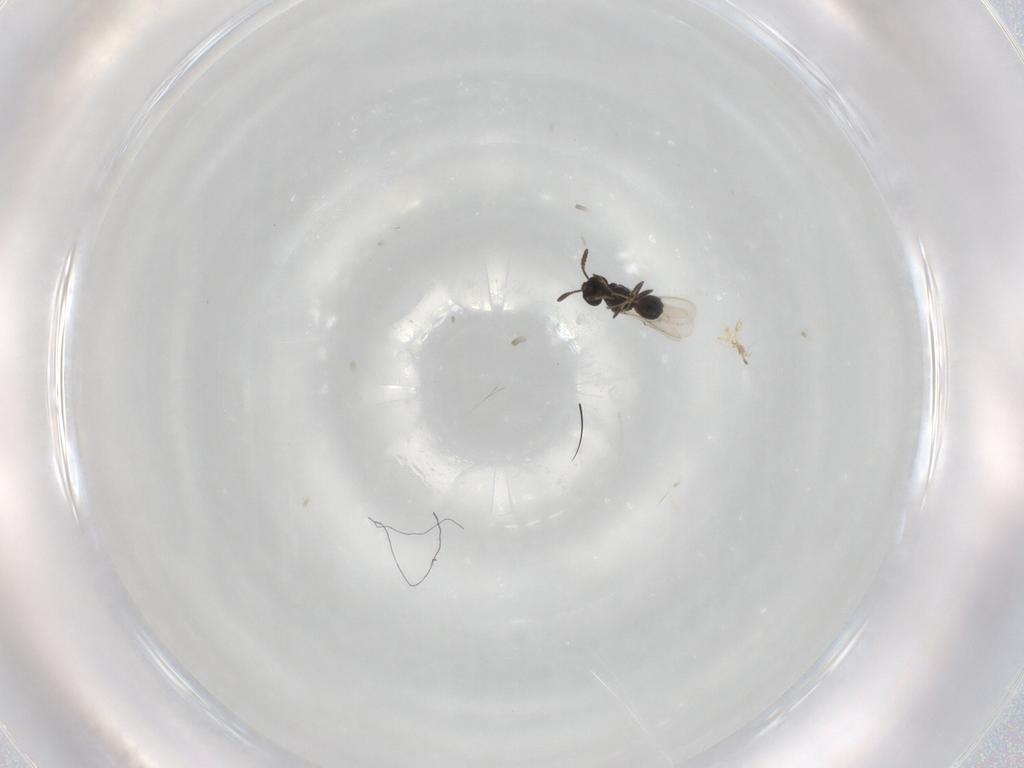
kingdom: Animalia
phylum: Arthropoda
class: Insecta
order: Hymenoptera
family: Scelionidae
